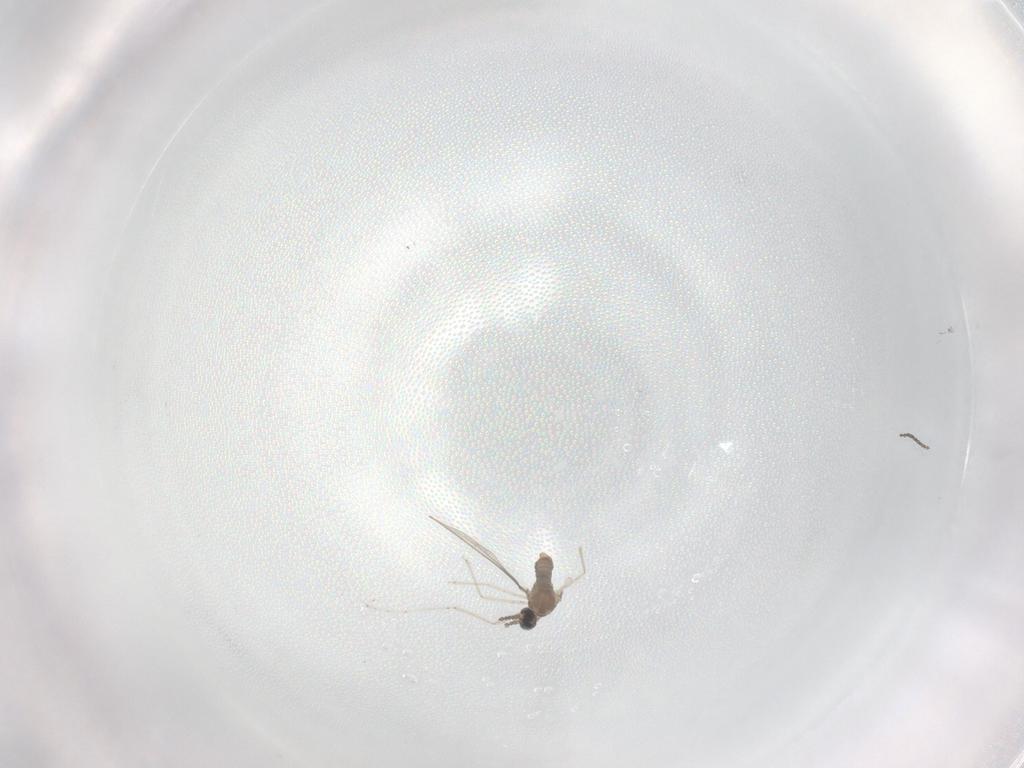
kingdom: Animalia
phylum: Arthropoda
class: Insecta
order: Diptera
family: Cecidomyiidae
